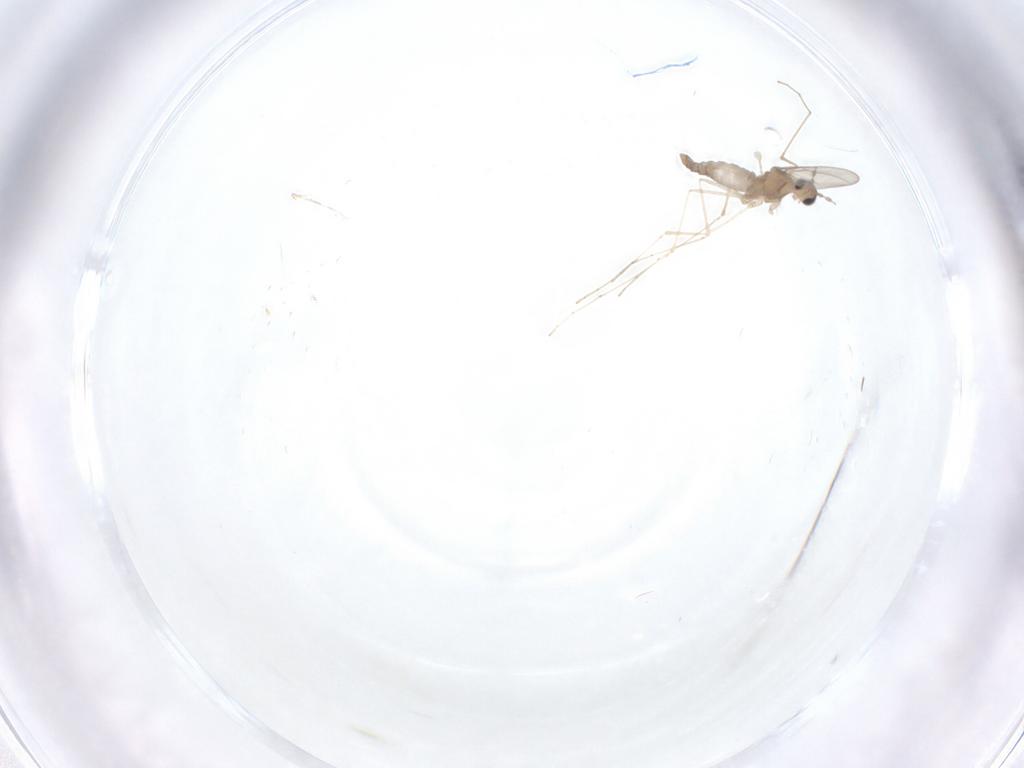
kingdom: Animalia
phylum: Arthropoda
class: Insecta
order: Diptera
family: Cecidomyiidae
